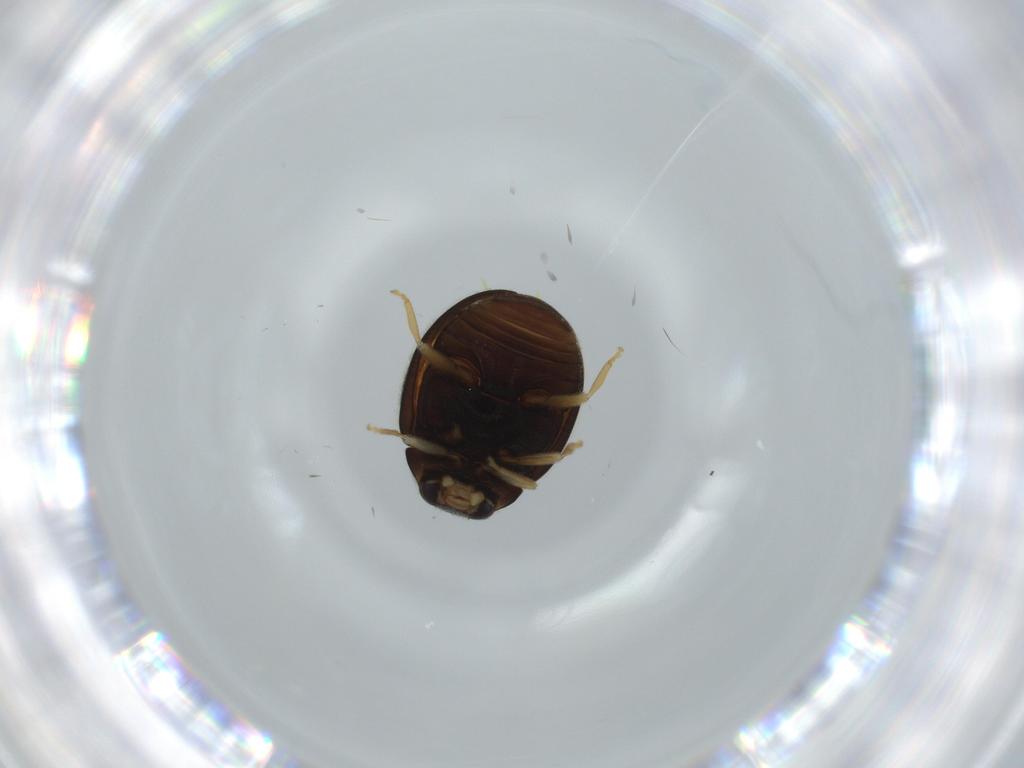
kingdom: Animalia
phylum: Arthropoda
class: Insecta
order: Coleoptera
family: Coccinellidae
